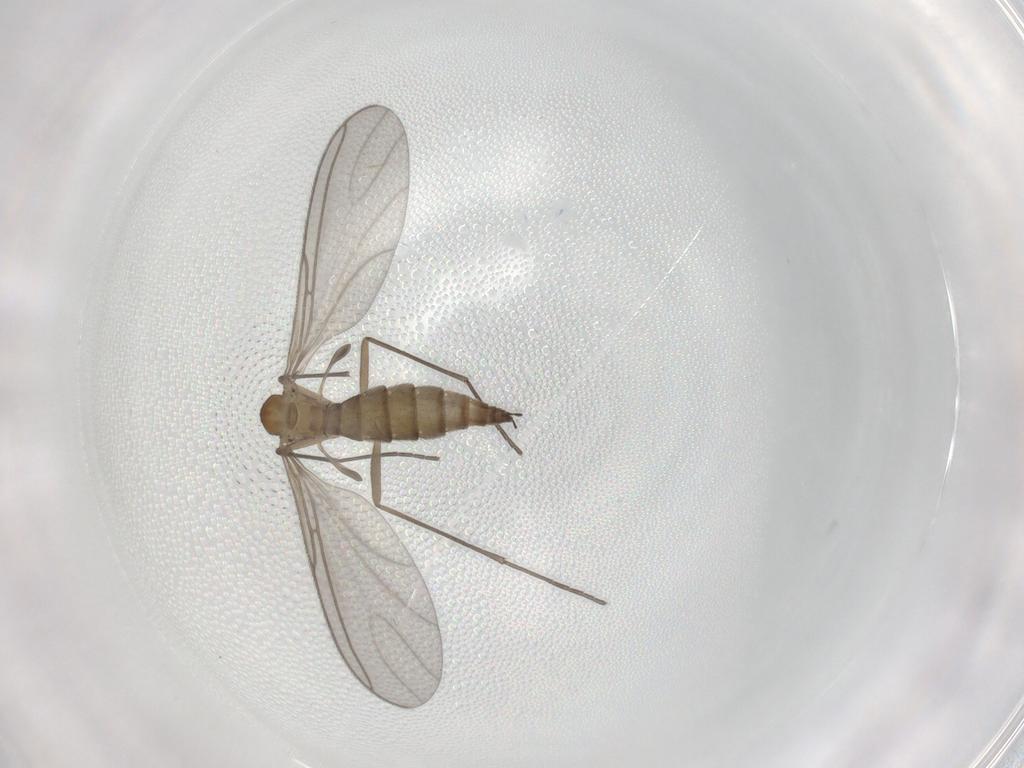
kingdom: Animalia
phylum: Arthropoda
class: Insecta
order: Diptera
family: Sciaridae
